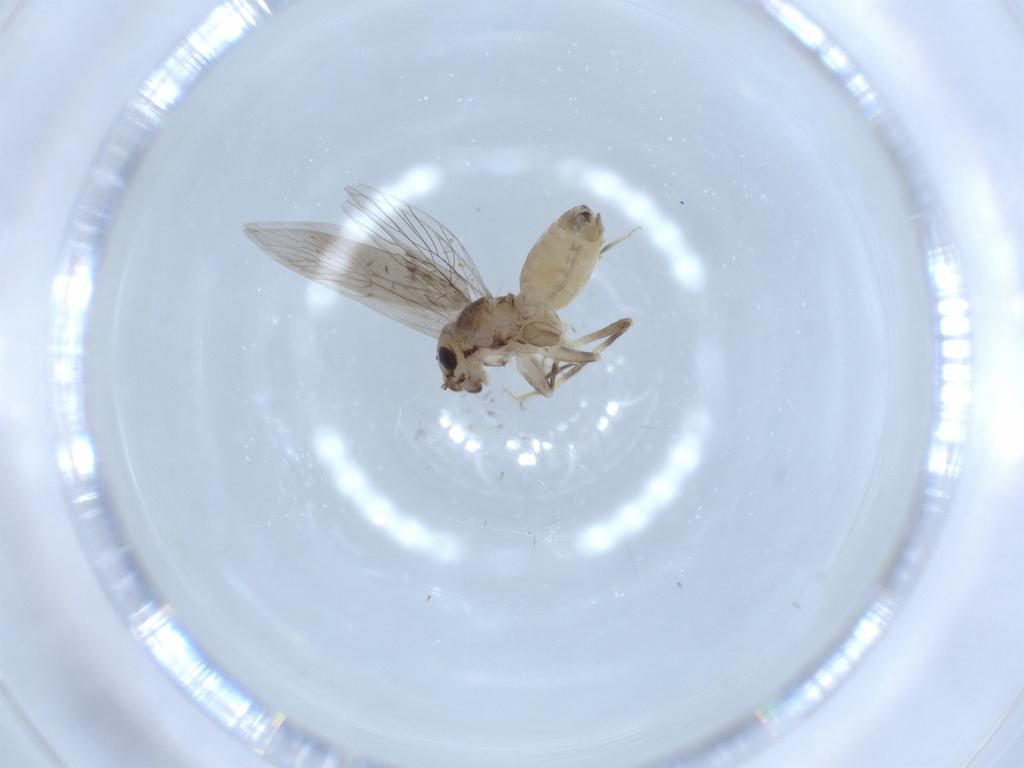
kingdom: Animalia
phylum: Arthropoda
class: Insecta
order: Psocodea
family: Lepidopsocidae
